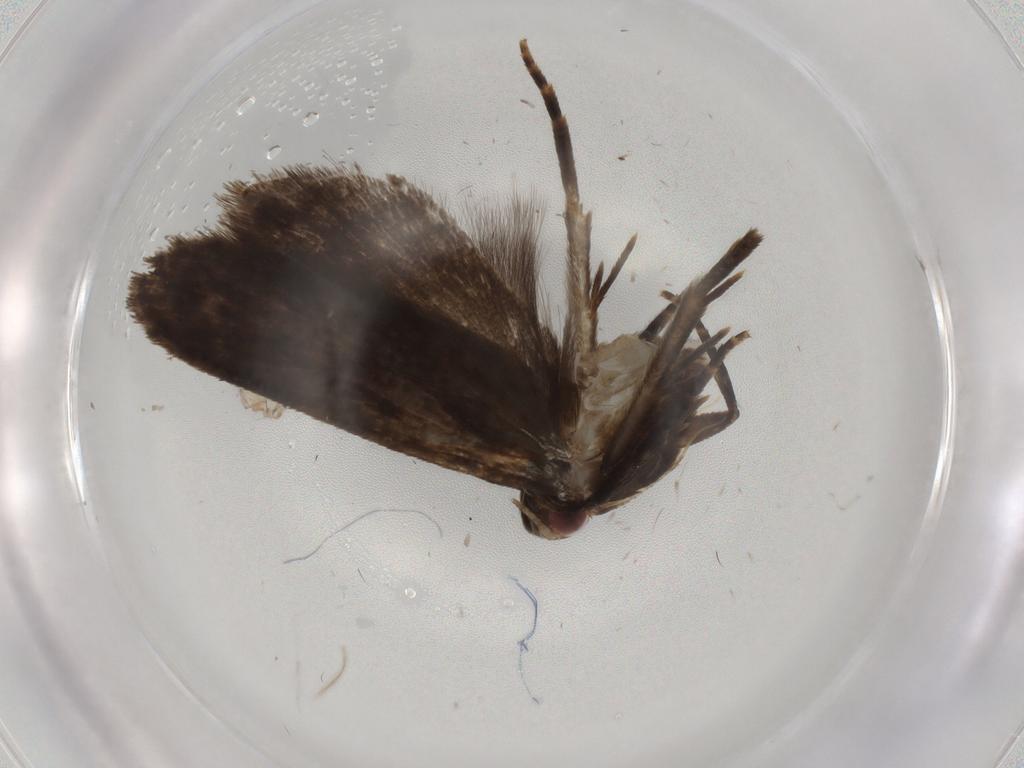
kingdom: Animalia
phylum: Arthropoda
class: Insecta
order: Lepidoptera
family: Gelechiidae
